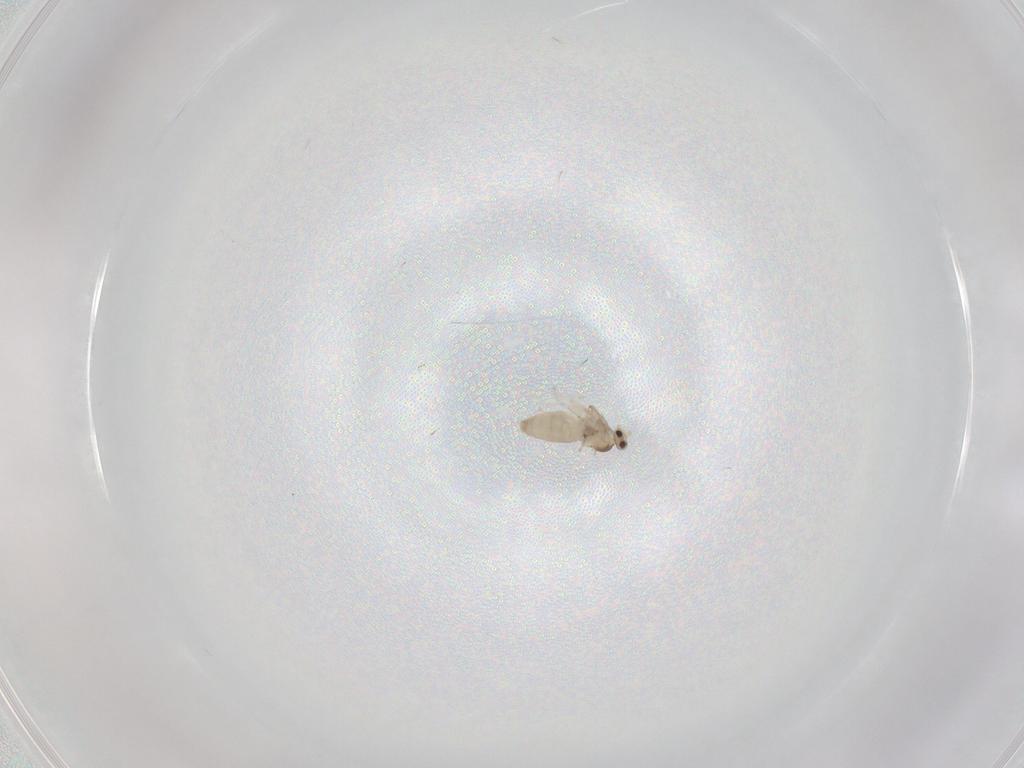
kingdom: Animalia
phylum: Arthropoda
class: Insecta
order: Diptera
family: Cecidomyiidae
